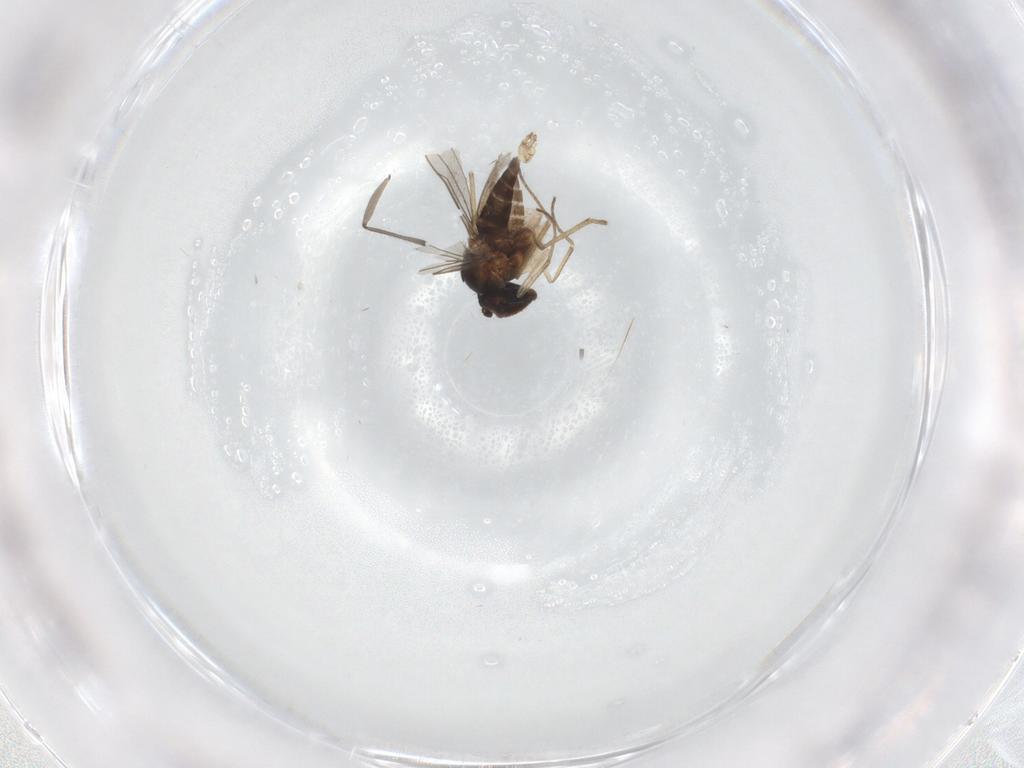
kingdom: Animalia
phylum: Arthropoda
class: Insecta
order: Diptera
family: Sciaridae
